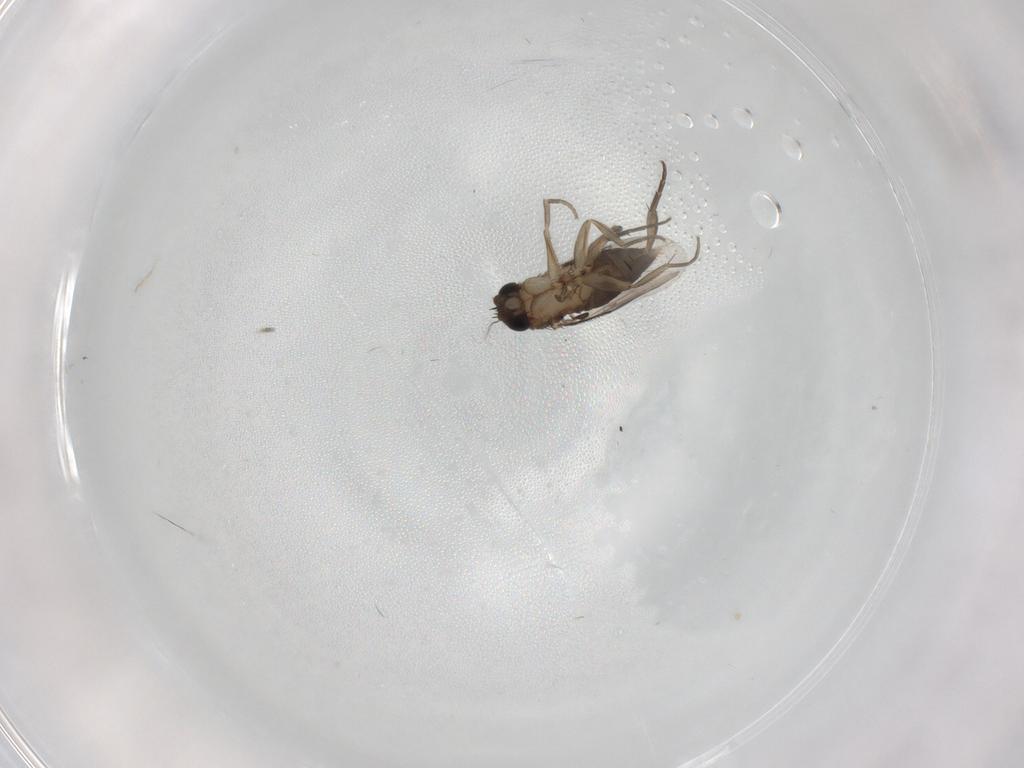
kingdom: Animalia
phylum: Arthropoda
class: Insecta
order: Diptera
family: Phoridae
